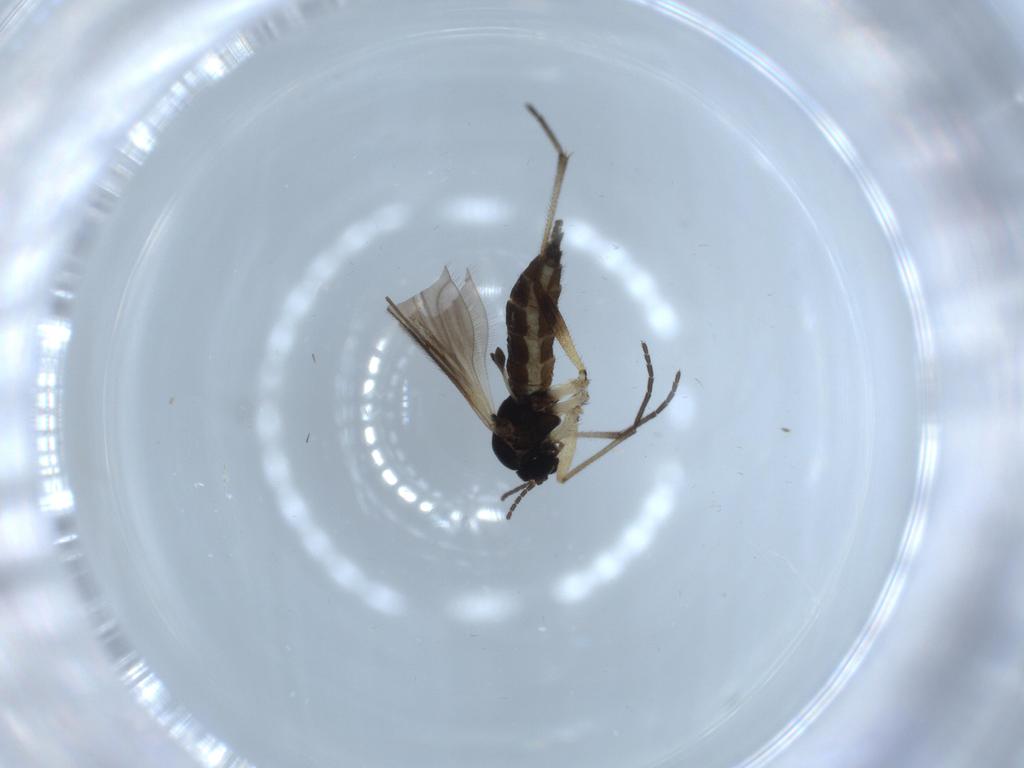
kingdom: Animalia
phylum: Arthropoda
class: Insecta
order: Diptera
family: Sciaridae
